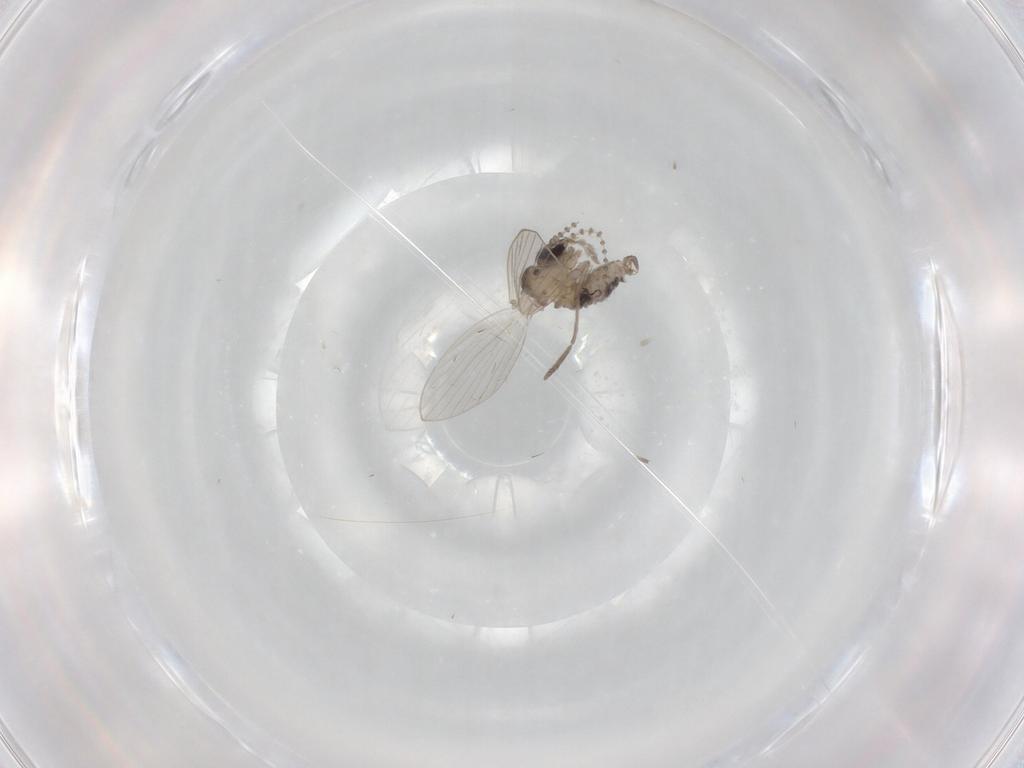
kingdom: Animalia
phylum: Arthropoda
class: Insecta
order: Diptera
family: Psychodidae
